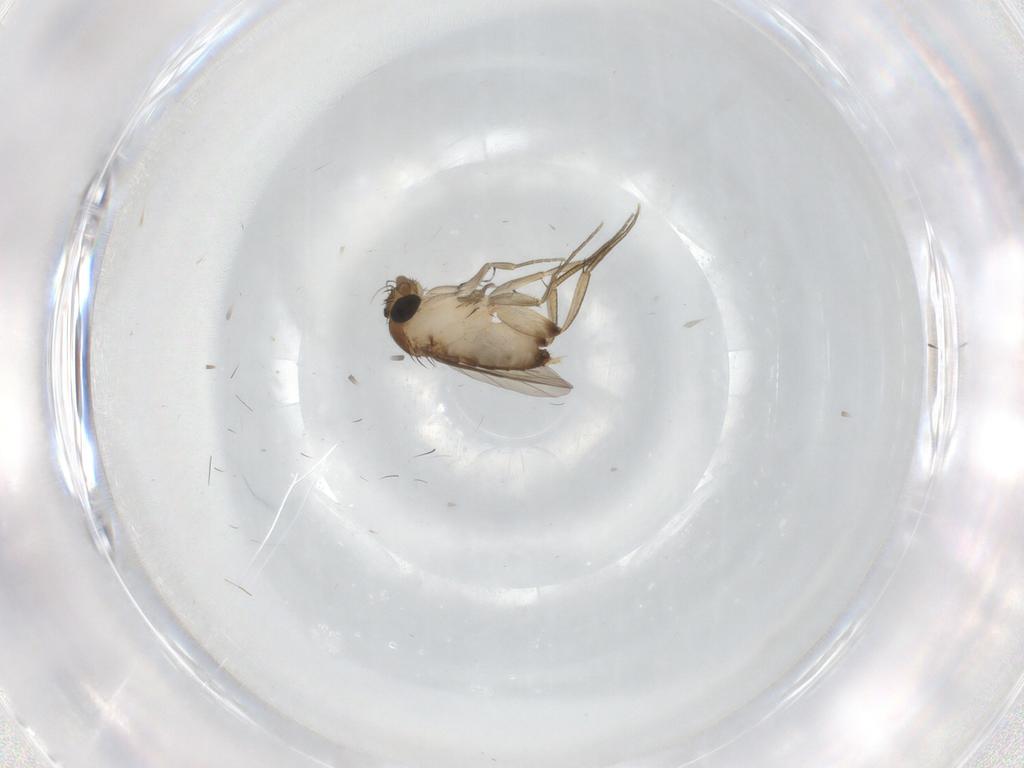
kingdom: Animalia
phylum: Arthropoda
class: Insecta
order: Diptera
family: Phoridae
